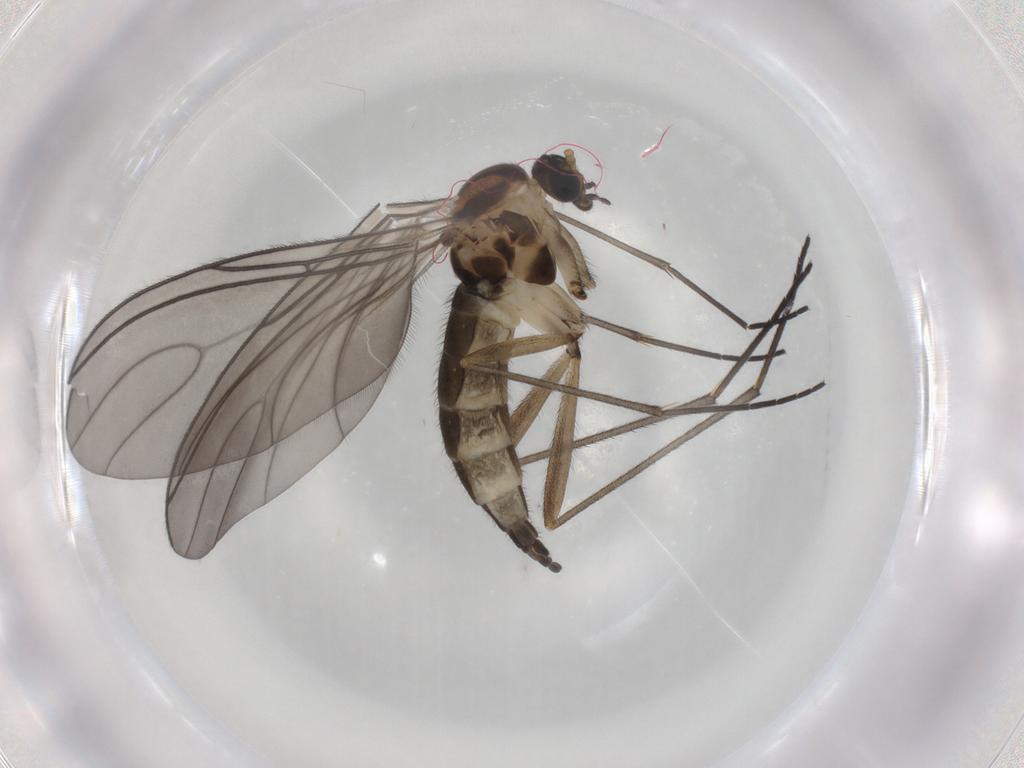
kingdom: Animalia
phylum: Arthropoda
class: Insecta
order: Diptera
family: Sciaridae
